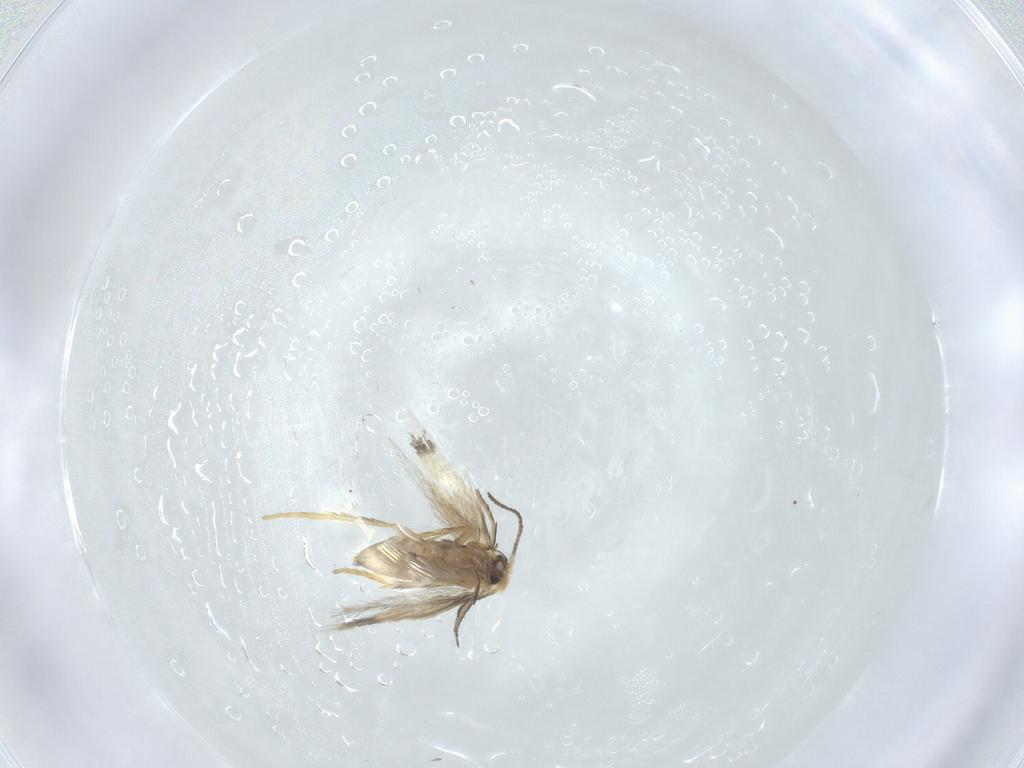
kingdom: Animalia
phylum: Arthropoda
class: Insecta
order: Lepidoptera
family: Nepticulidae
